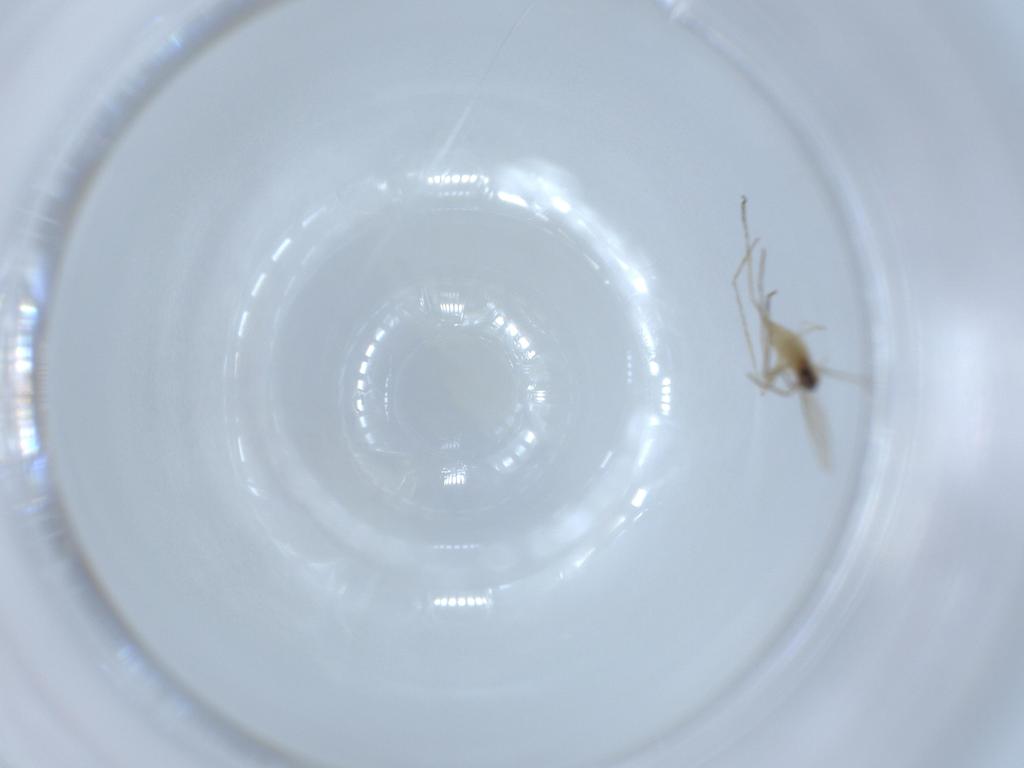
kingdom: Animalia
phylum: Arthropoda
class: Insecta
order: Diptera
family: Cecidomyiidae
